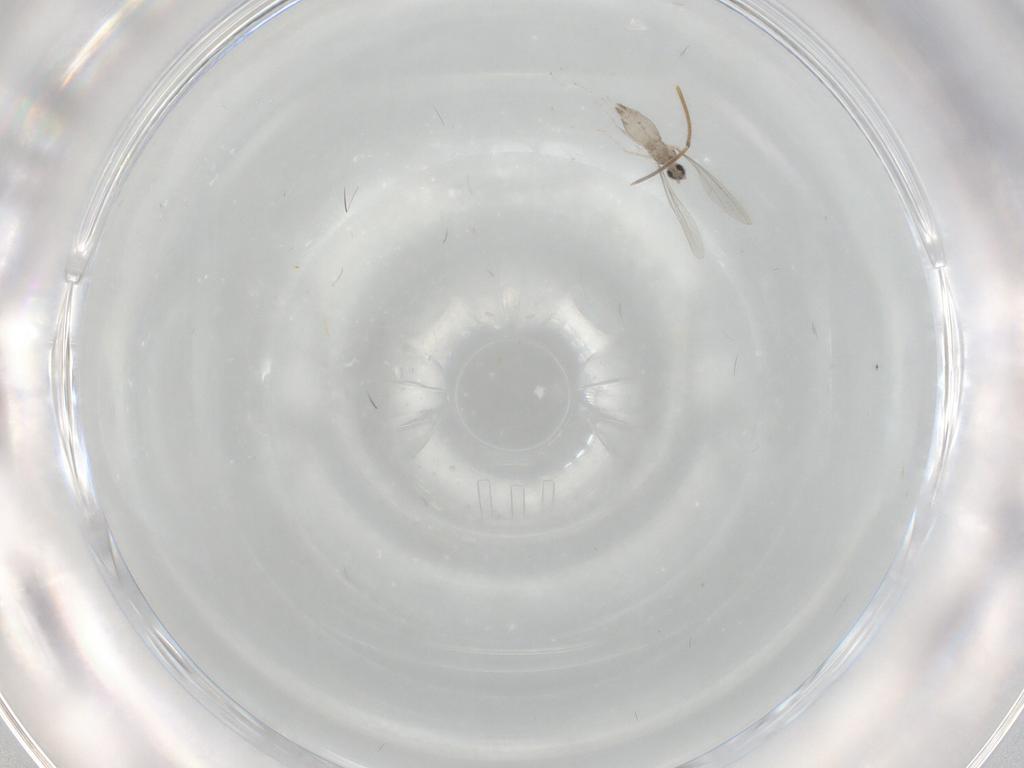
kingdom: Animalia
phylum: Arthropoda
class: Insecta
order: Diptera
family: Cecidomyiidae
